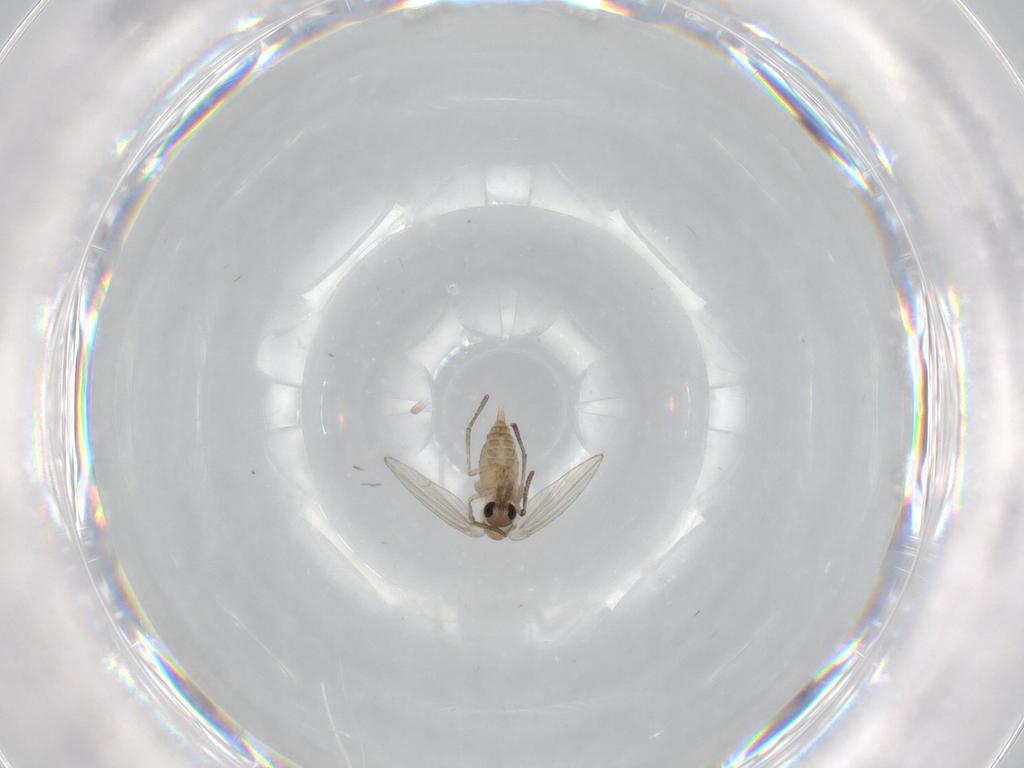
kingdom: Animalia
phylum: Arthropoda
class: Insecta
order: Diptera
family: Psychodidae
